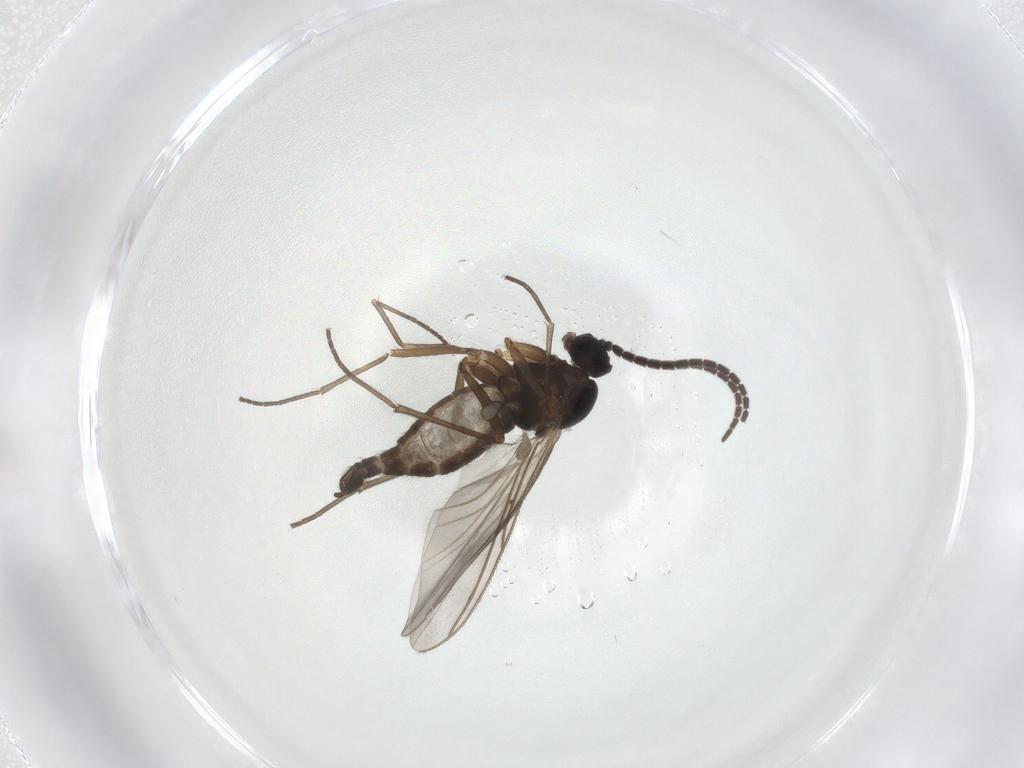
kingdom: Animalia
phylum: Arthropoda
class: Insecta
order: Diptera
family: Sciaridae
